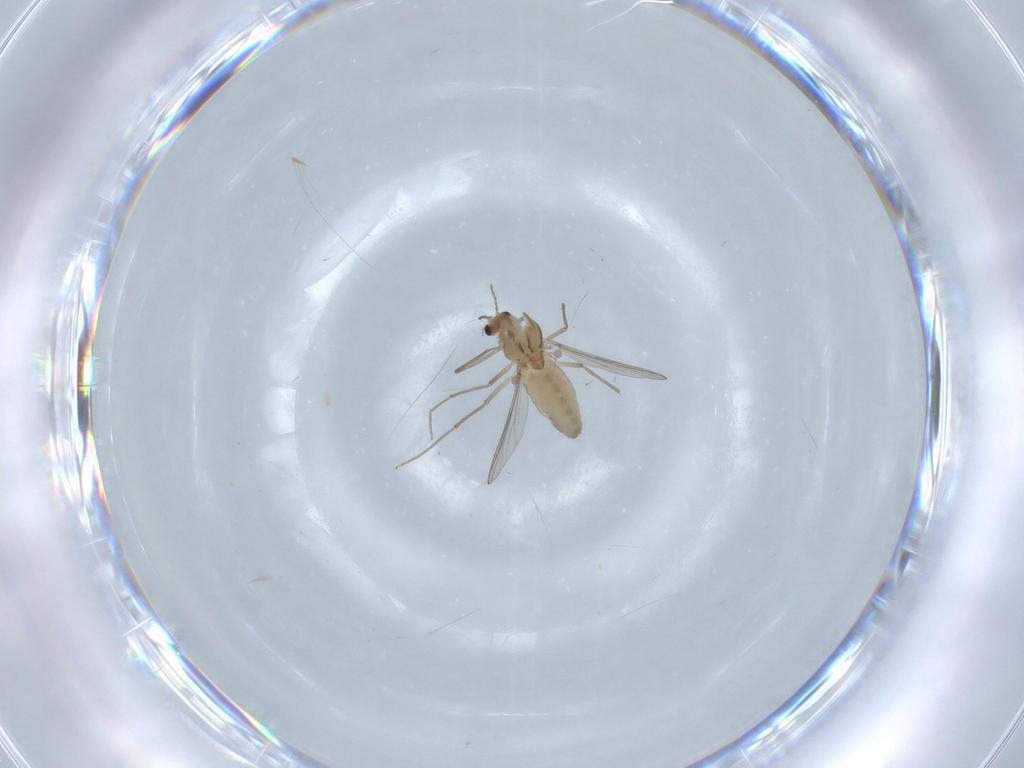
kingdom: Animalia
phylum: Arthropoda
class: Insecta
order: Diptera
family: Chironomidae
